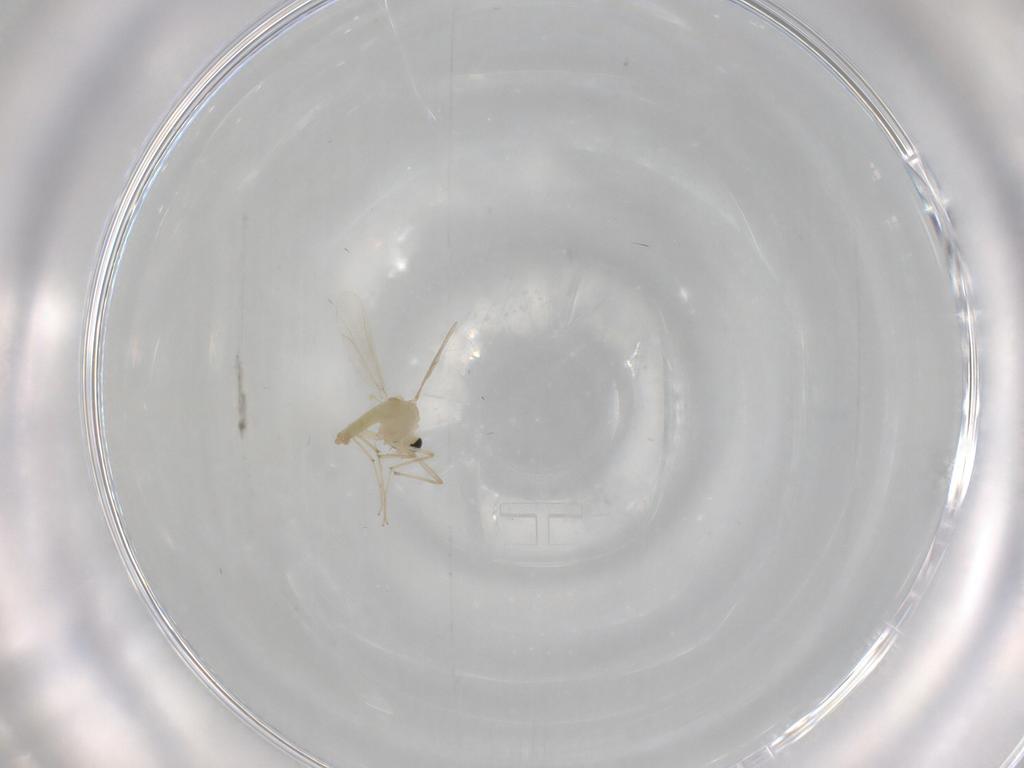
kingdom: Animalia
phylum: Arthropoda
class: Insecta
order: Diptera
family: Chironomidae
